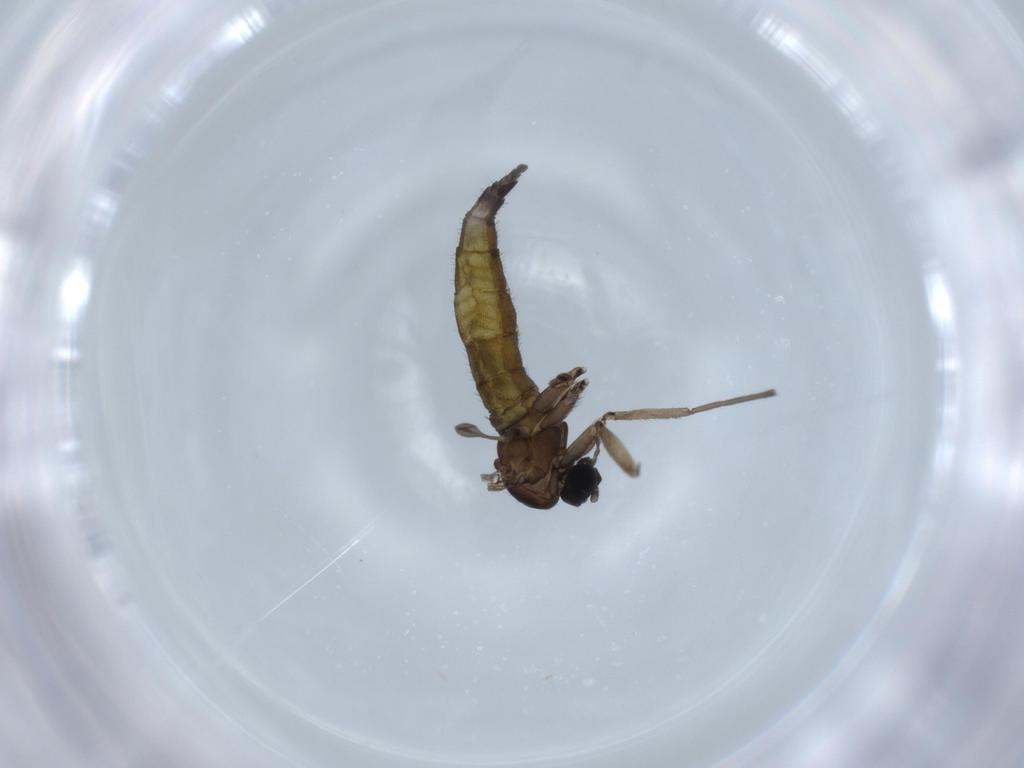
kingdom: Animalia
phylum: Arthropoda
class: Insecta
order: Diptera
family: Sciaridae
